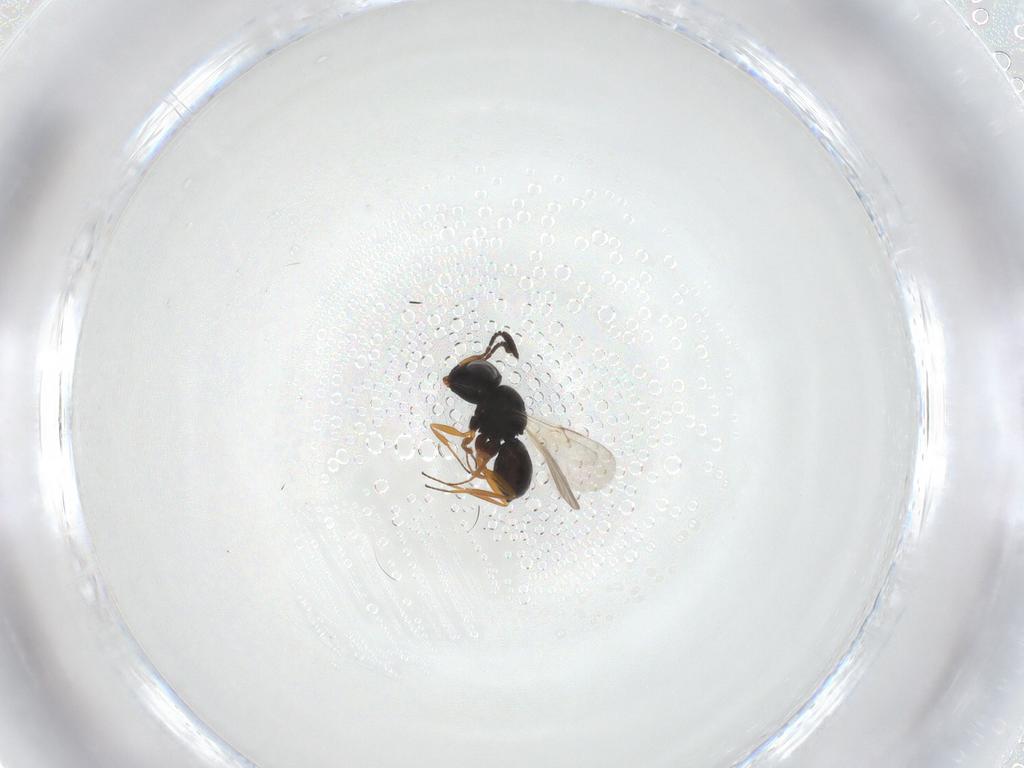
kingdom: Animalia
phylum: Arthropoda
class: Insecta
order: Hymenoptera
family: Scelionidae
